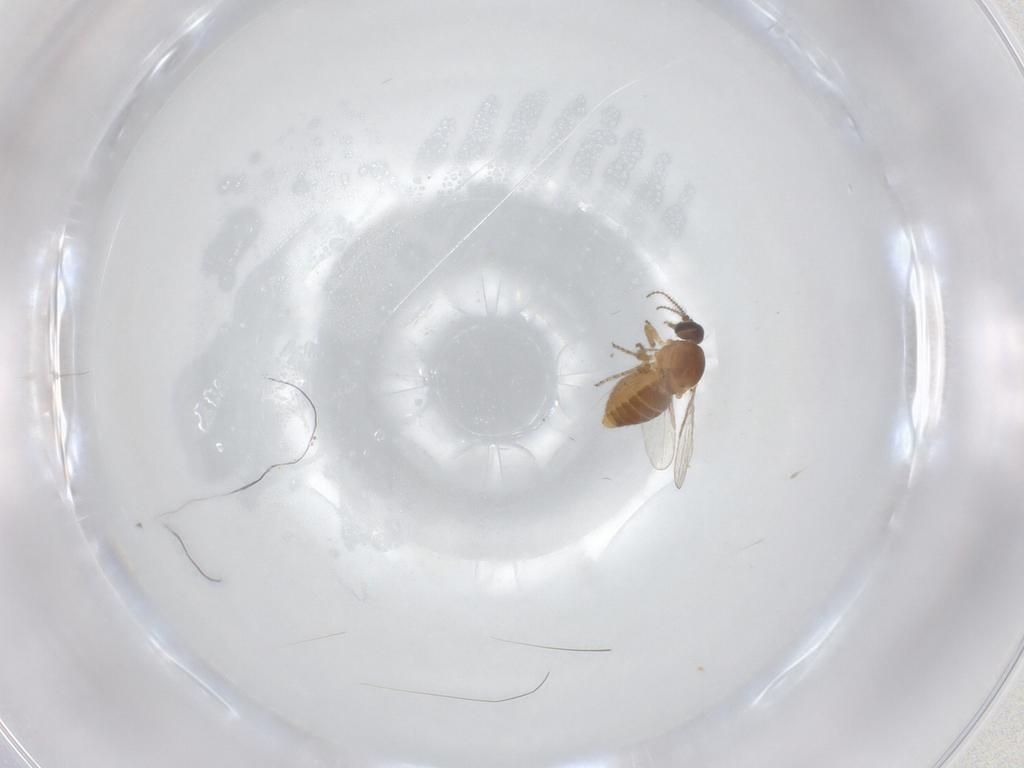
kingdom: Animalia
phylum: Arthropoda
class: Insecta
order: Diptera
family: Ceratopogonidae
